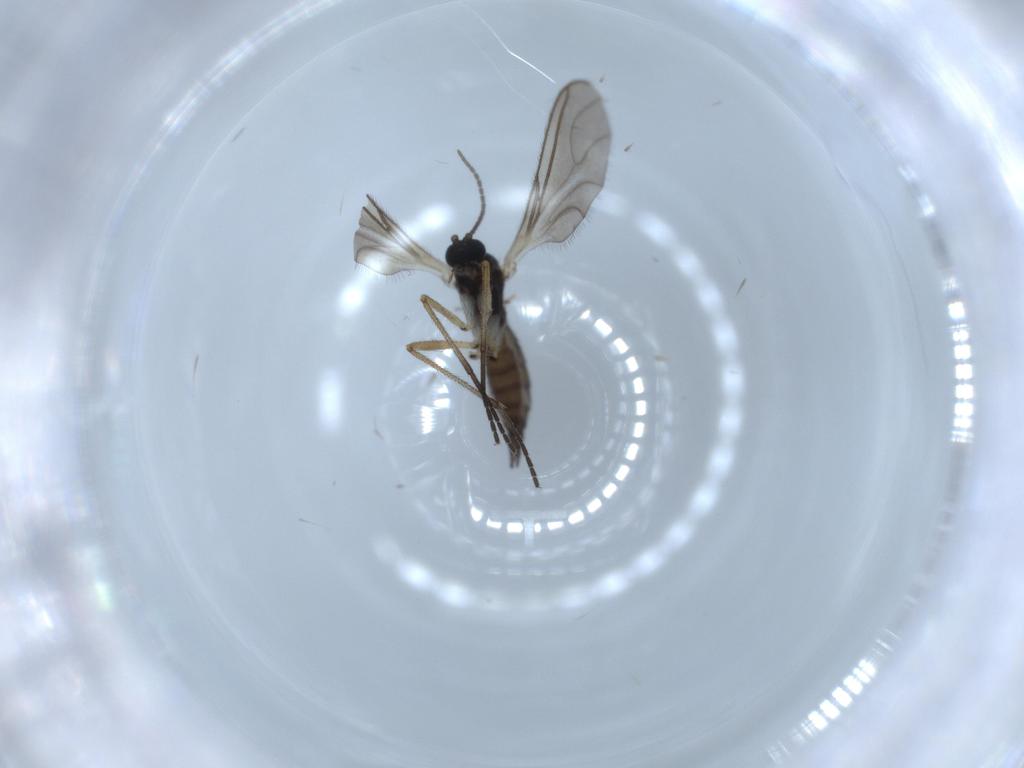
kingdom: Animalia
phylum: Arthropoda
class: Insecta
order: Diptera
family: Sciaridae
